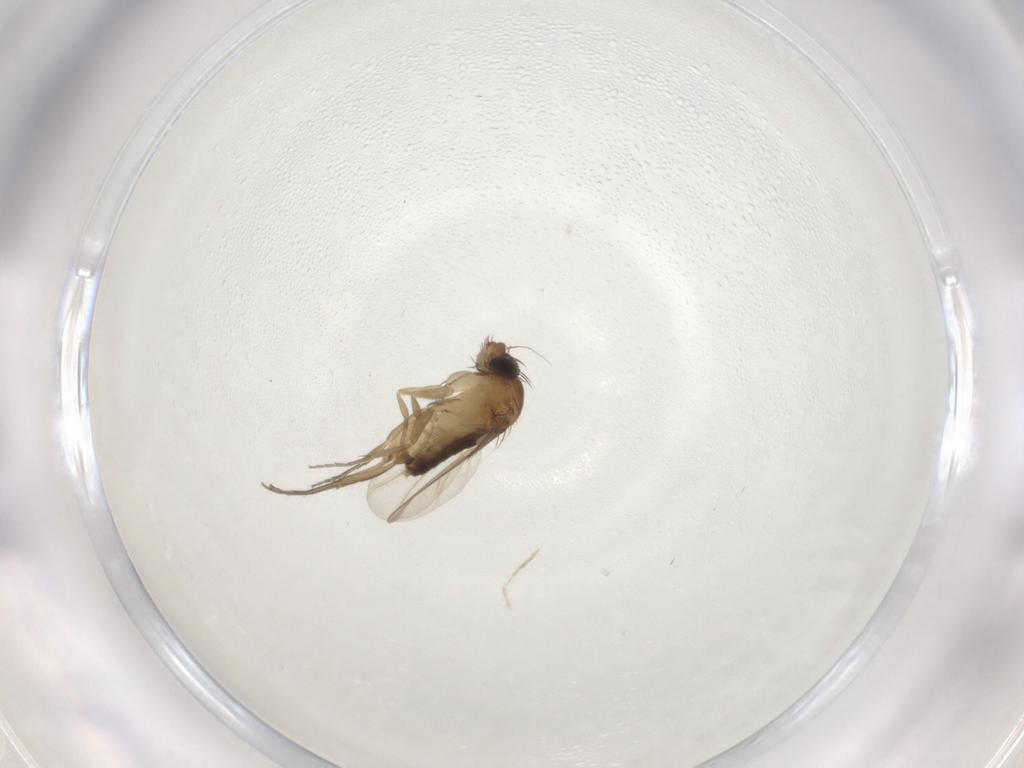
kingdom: Animalia
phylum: Arthropoda
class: Insecta
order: Diptera
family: Cecidomyiidae
